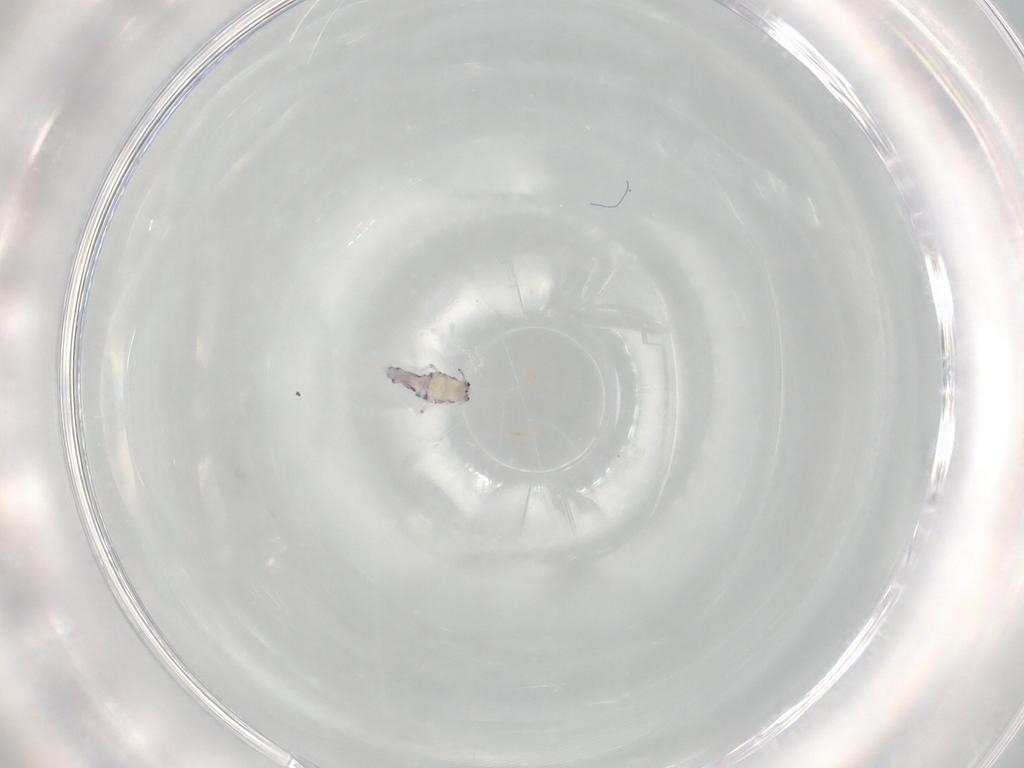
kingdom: Animalia
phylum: Arthropoda
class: Collembola
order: Entomobryomorpha
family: Entomobryidae
